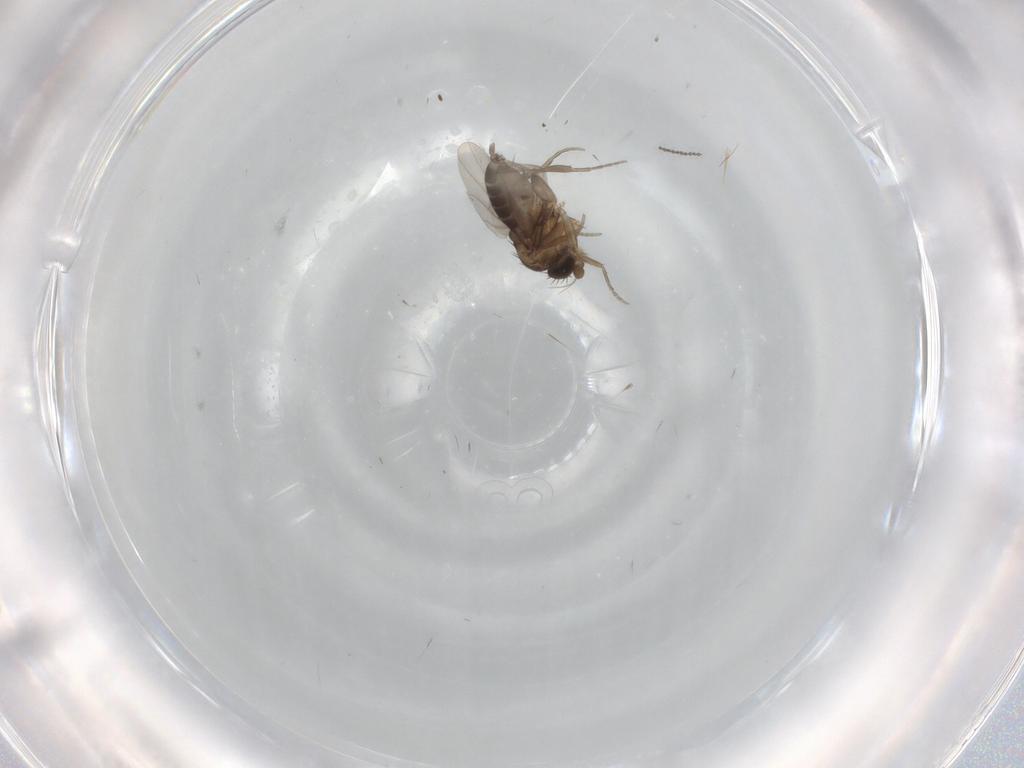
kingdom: Animalia
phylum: Arthropoda
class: Insecta
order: Diptera
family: Phoridae
